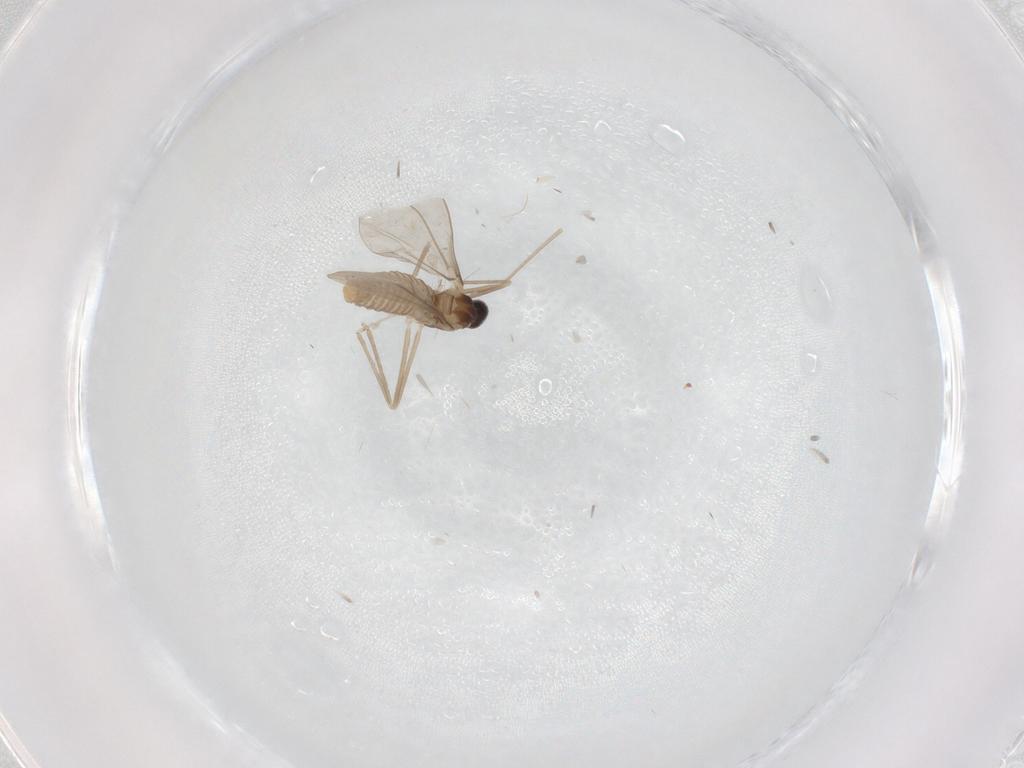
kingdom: Animalia
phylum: Arthropoda
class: Insecta
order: Diptera
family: Cecidomyiidae
